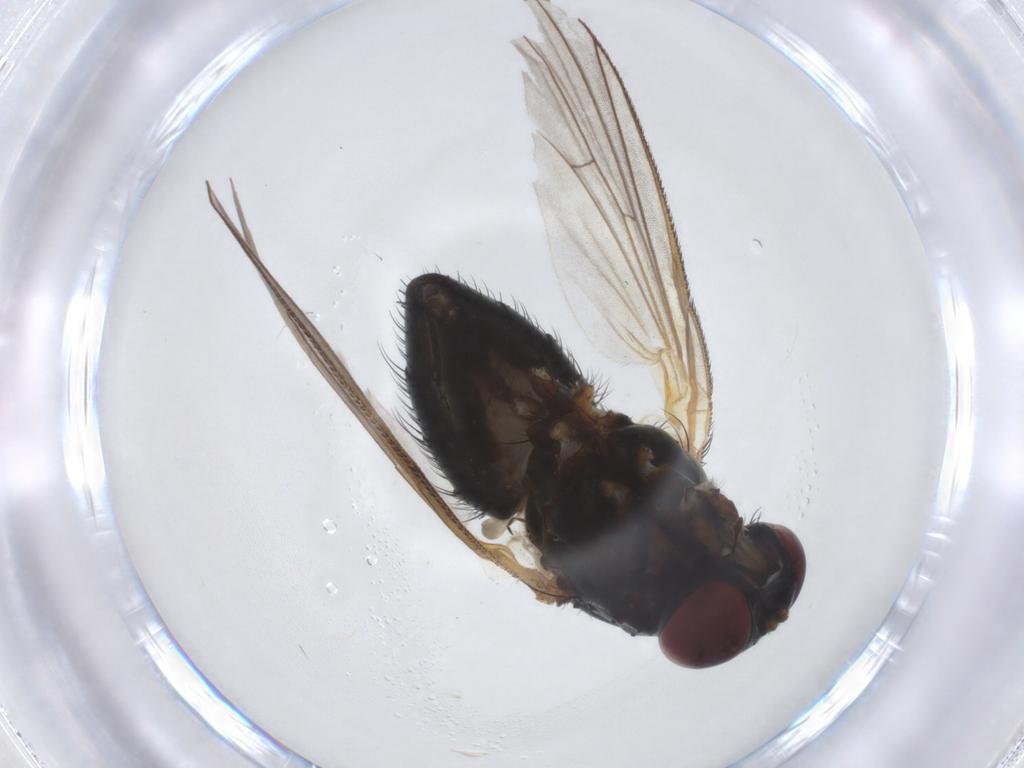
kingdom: Animalia
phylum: Arthropoda
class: Insecta
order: Diptera
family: Fanniidae
